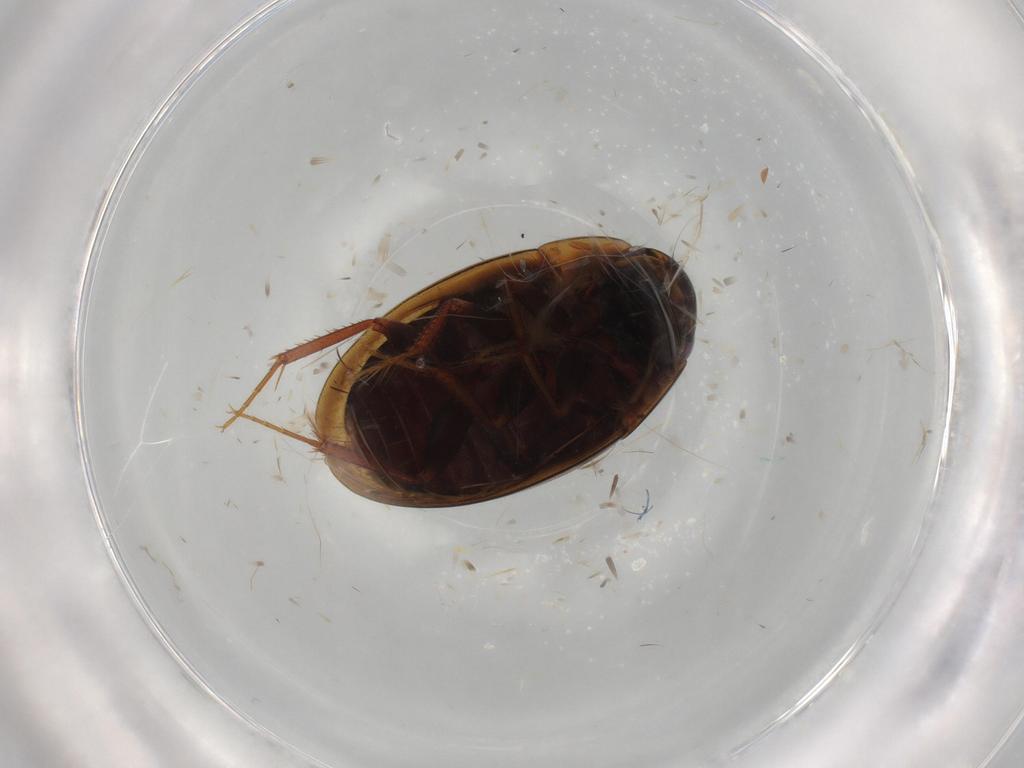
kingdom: Animalia
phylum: Arthropoda
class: Insecta
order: Coleoptera
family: Hydrophilidae
